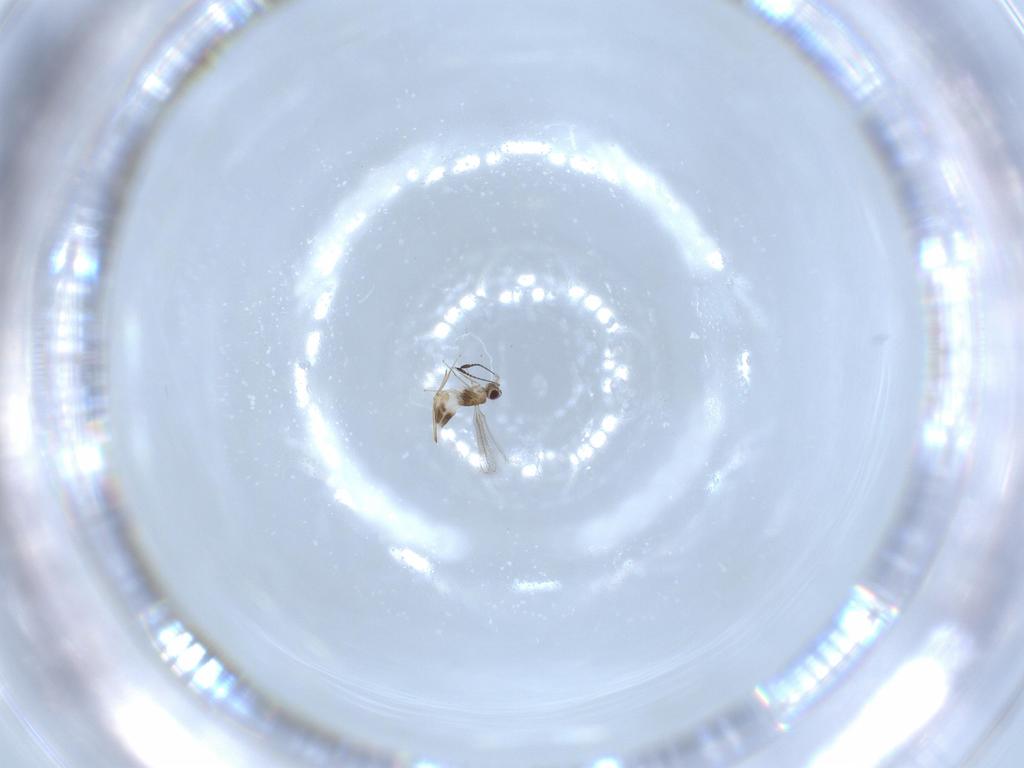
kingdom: Animalia
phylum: Arthropoda
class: Insecta
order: Hymenoptera
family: Mymaridae
